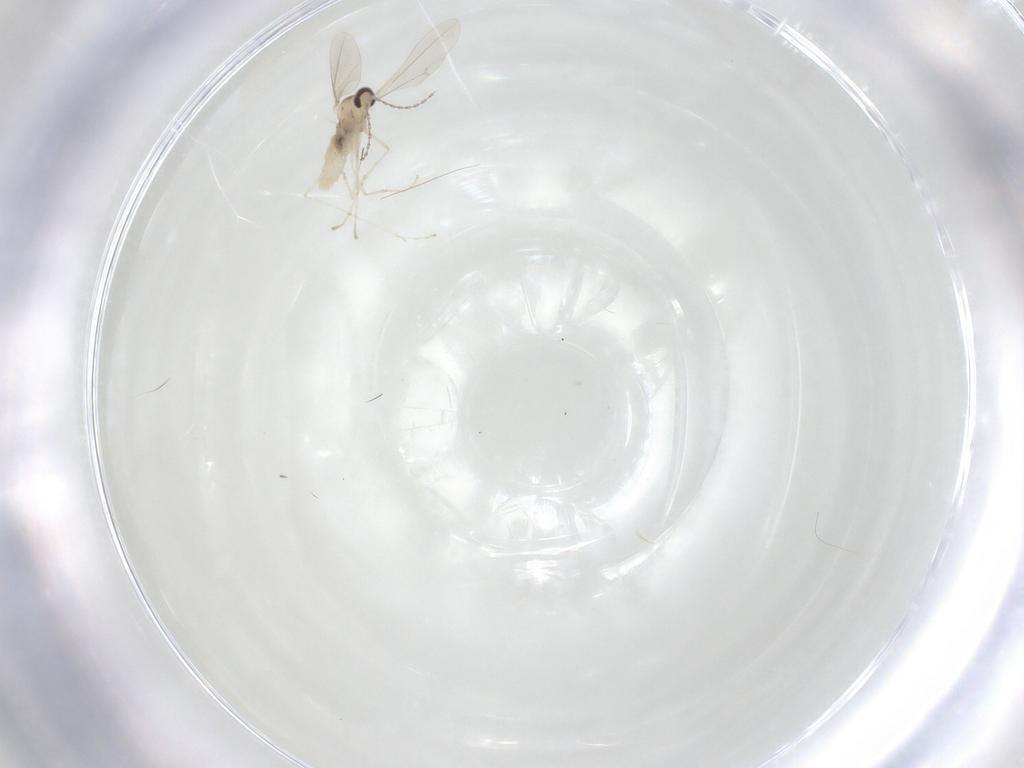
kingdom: Animalia
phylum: Arthropoda
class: Insecta
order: Diptera
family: Cecidomyiidae
